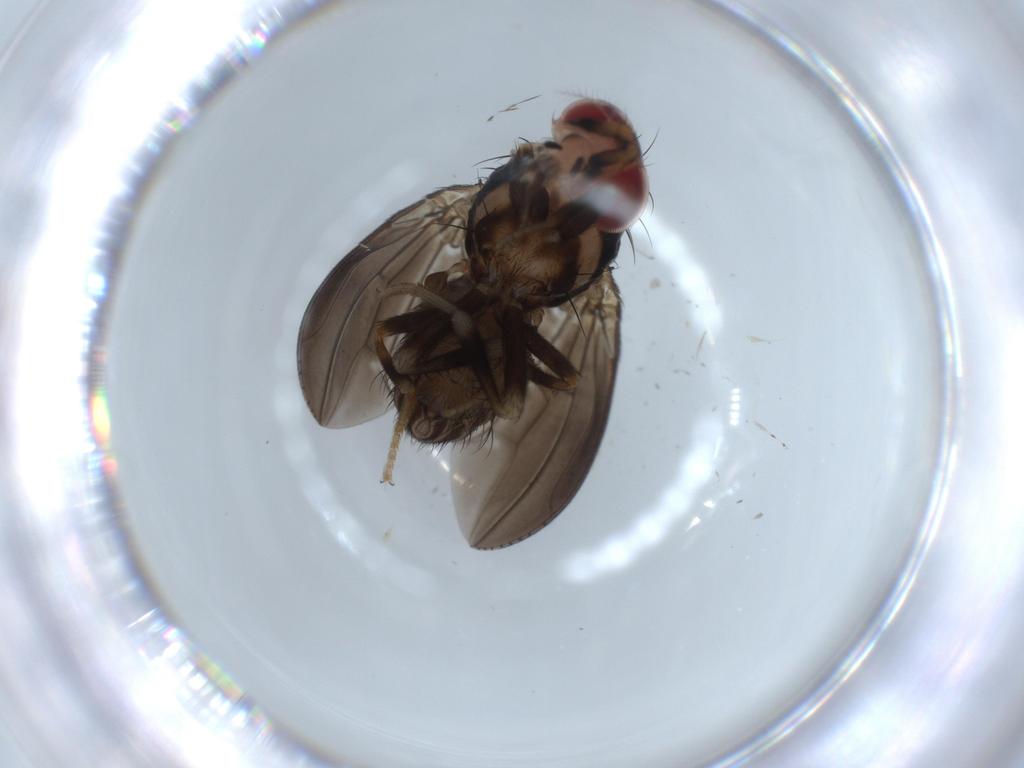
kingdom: Animalia
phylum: Arthropoda
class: Insecta
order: Diptera
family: Drosophilidae
